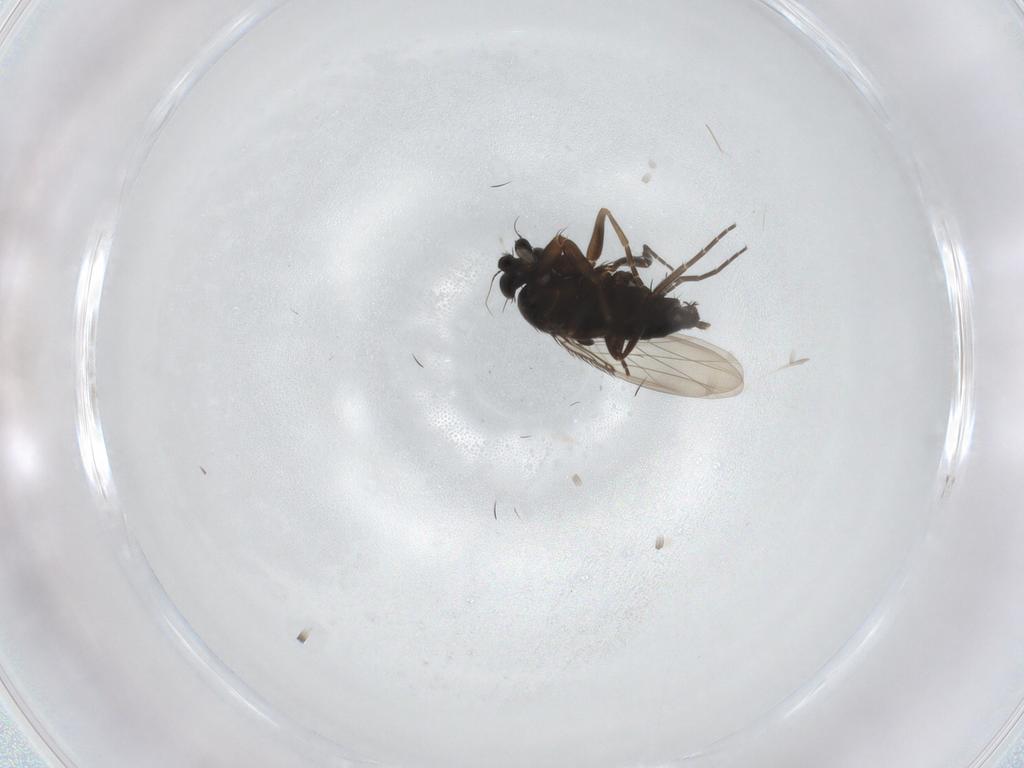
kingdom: Animalia
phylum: Arthropoda
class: Insecta
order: Diptera
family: Phoridae
